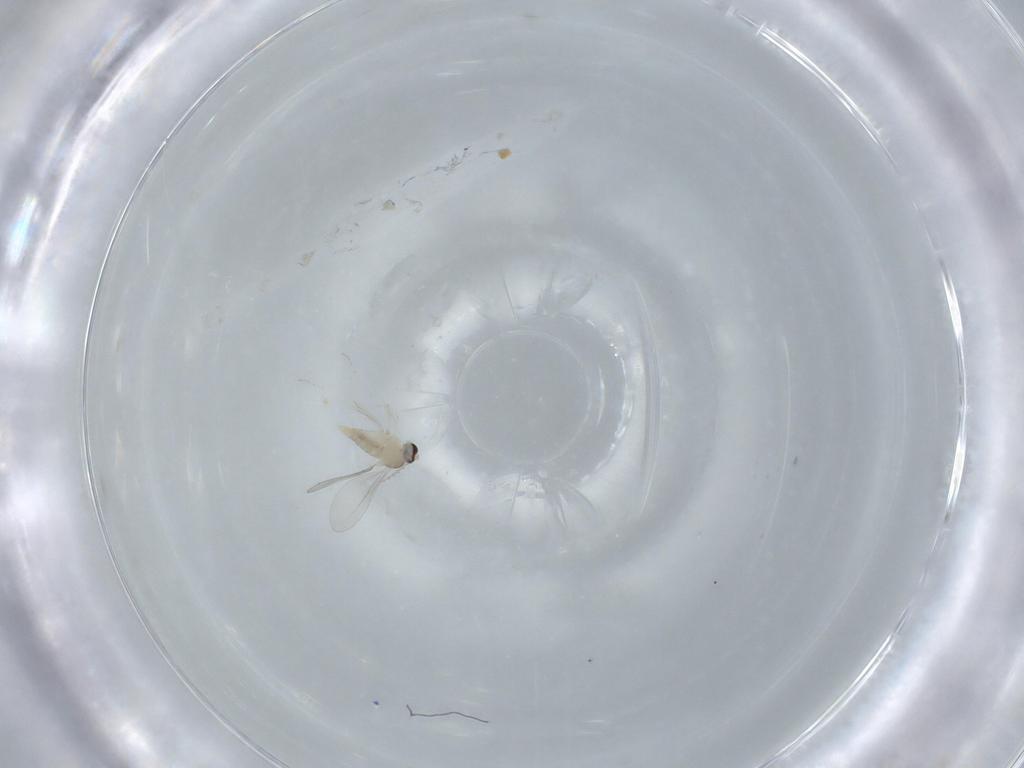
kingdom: Animalia
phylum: Arthropoda
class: Insecta
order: Diptera
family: Cecidomyiidae
